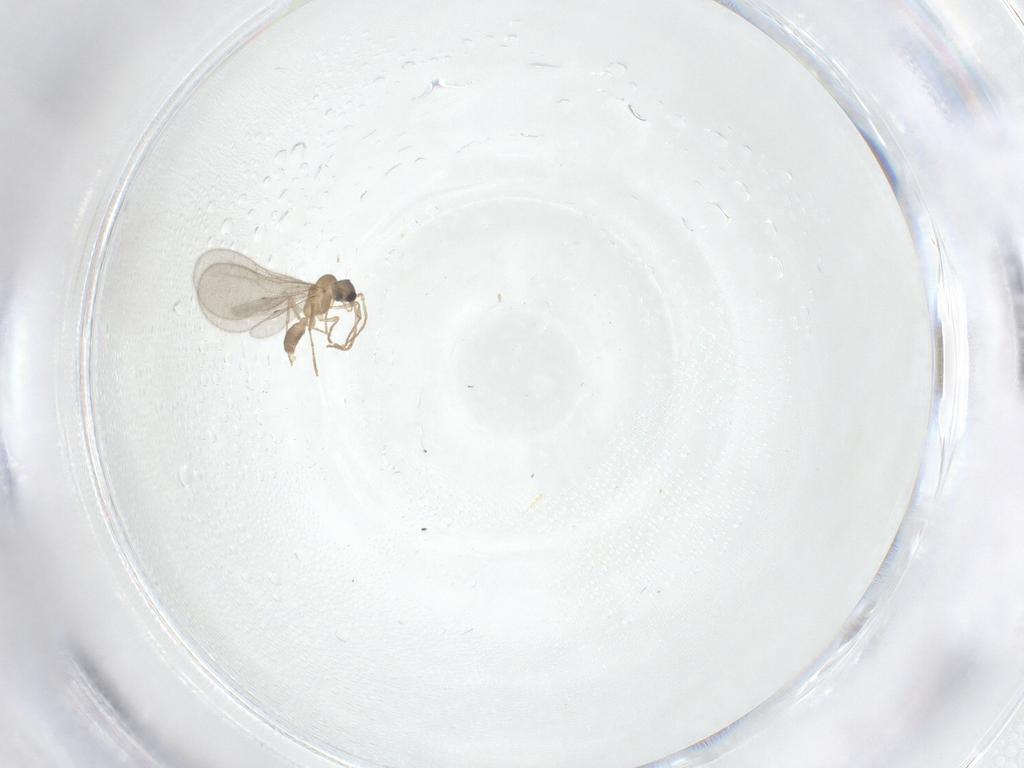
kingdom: Animalia
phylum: Arthropoda
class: Insecta
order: Hymenoptera
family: Formicidae
